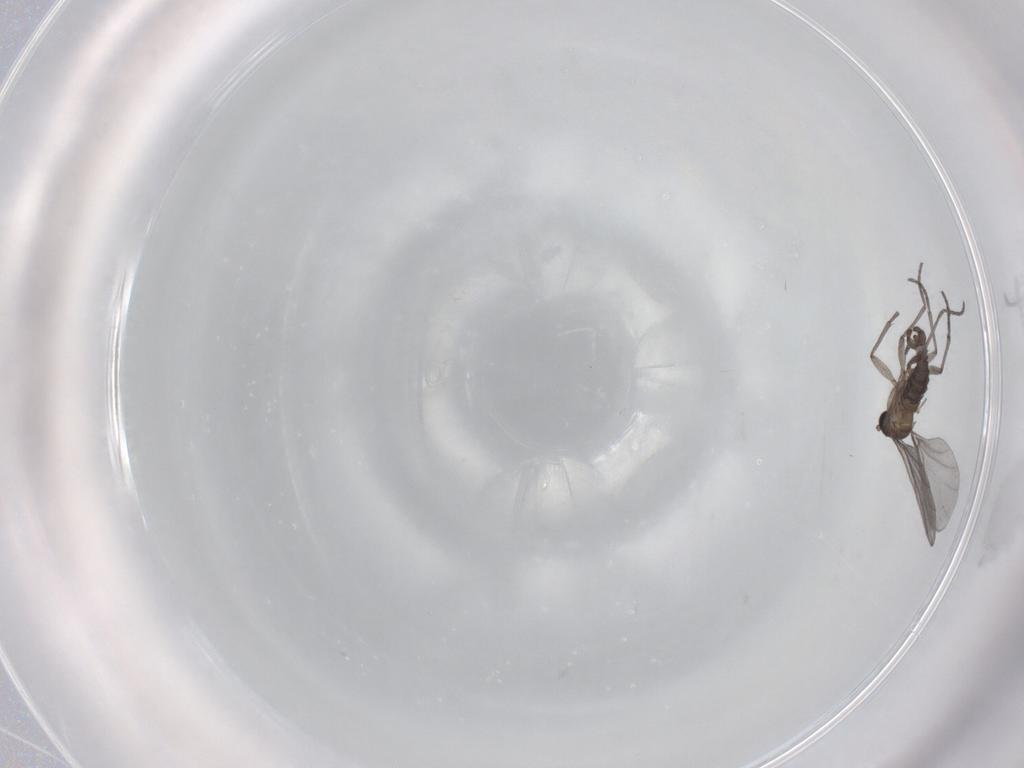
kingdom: Animalia
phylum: Arthropoda
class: Insecta
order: Diptera
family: Sciaridae
